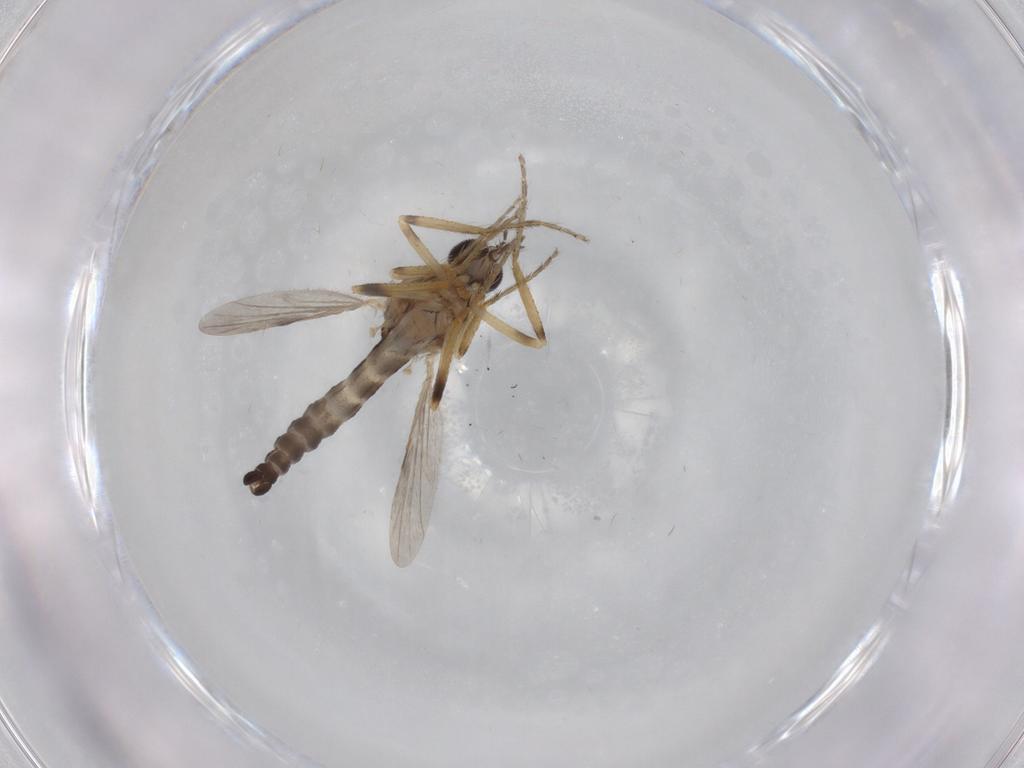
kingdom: Animalia
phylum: Arthropoda
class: Insecta
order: Diptera
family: Ceratopogonidae
